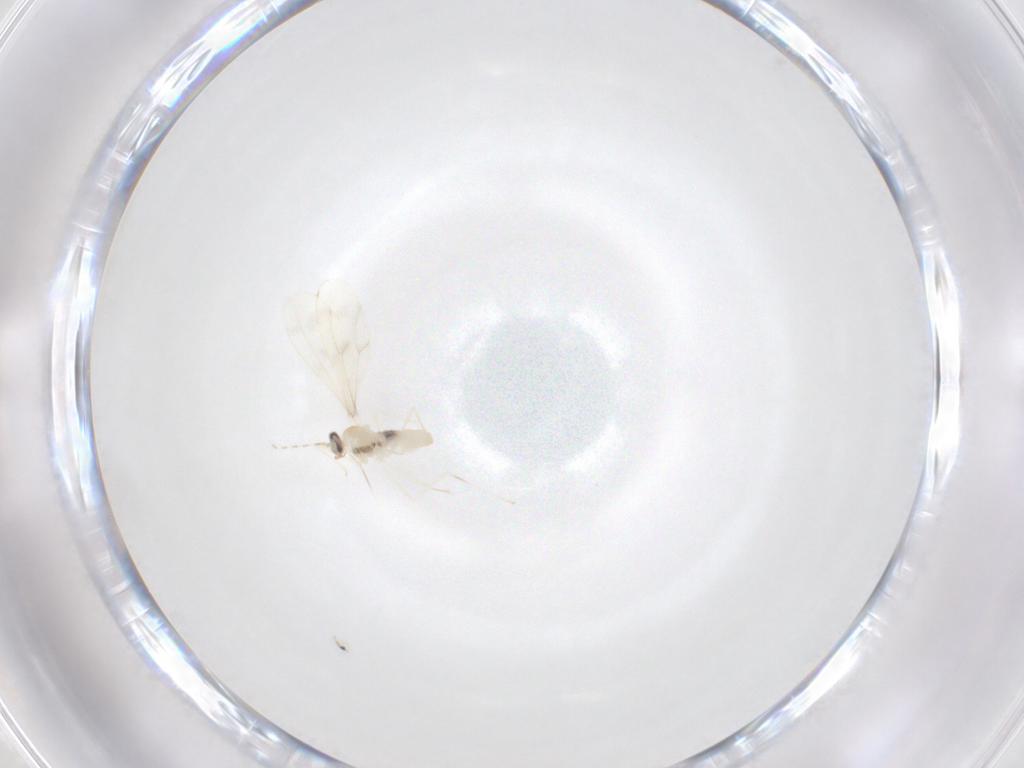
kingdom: Animalia
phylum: Arthropoda
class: Insecta
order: Diptera
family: Cecidomyiidae
